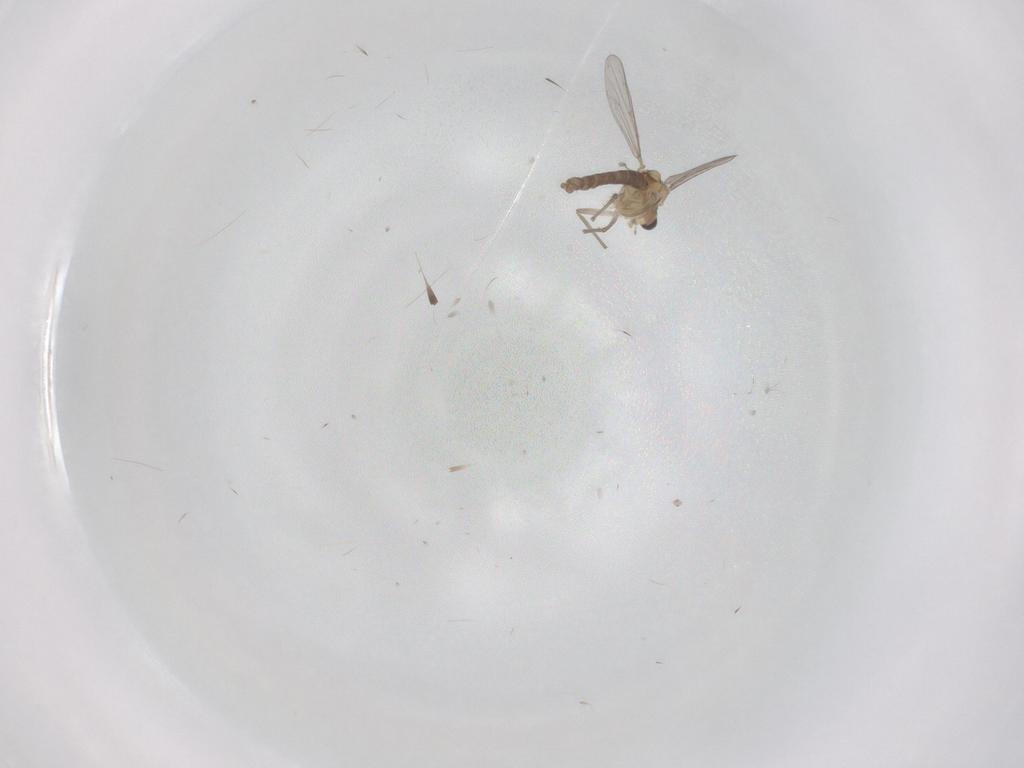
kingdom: Animalia
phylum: Arthropoda
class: Insecta
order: Diptera
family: Chironomidae
